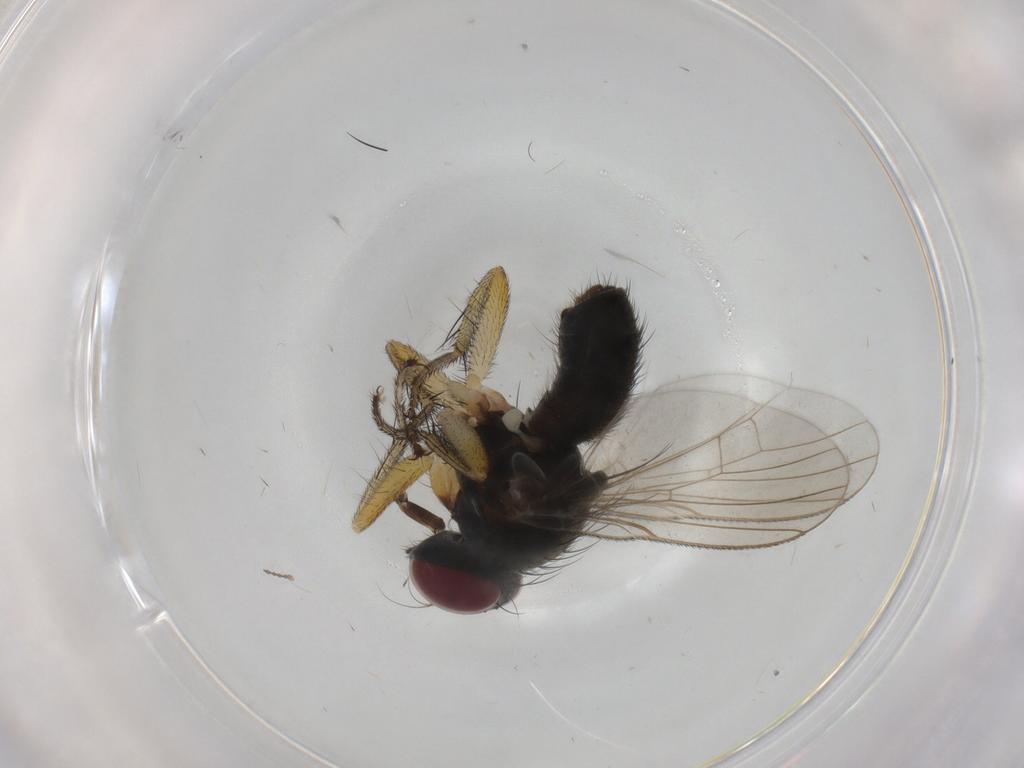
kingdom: Animalia
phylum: Arthropoda
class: Insecta
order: Diptera
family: Muscidae
